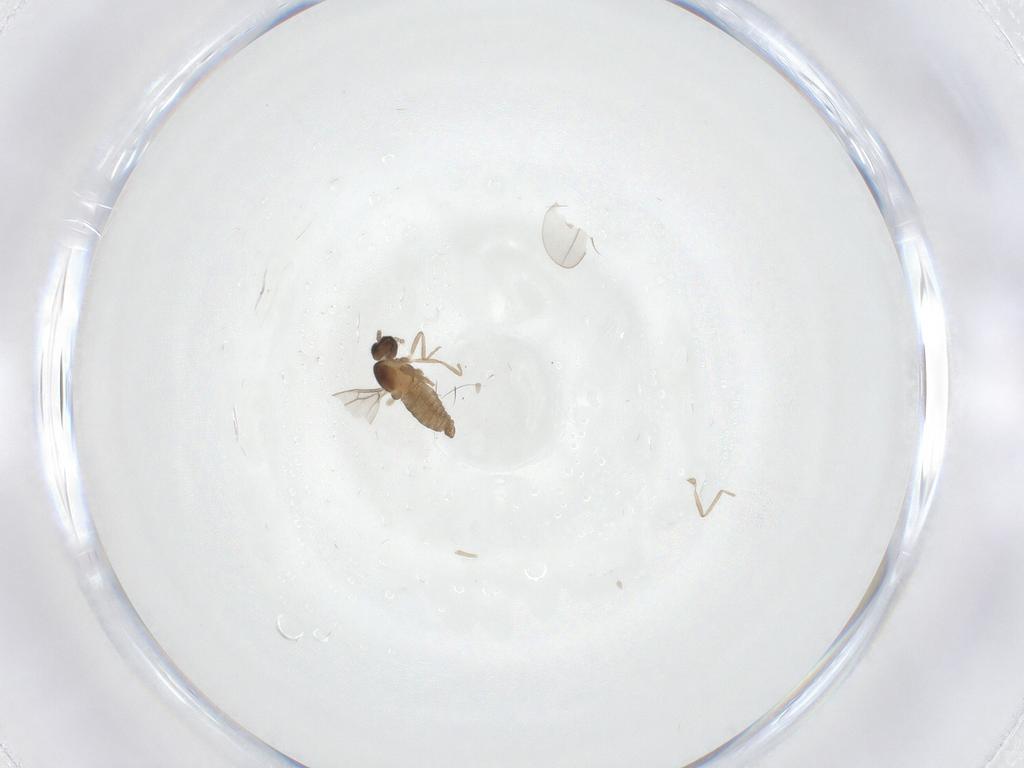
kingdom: Animalia
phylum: Arthropoda
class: Insecta
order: Diptera
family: Cecidomyiidae
